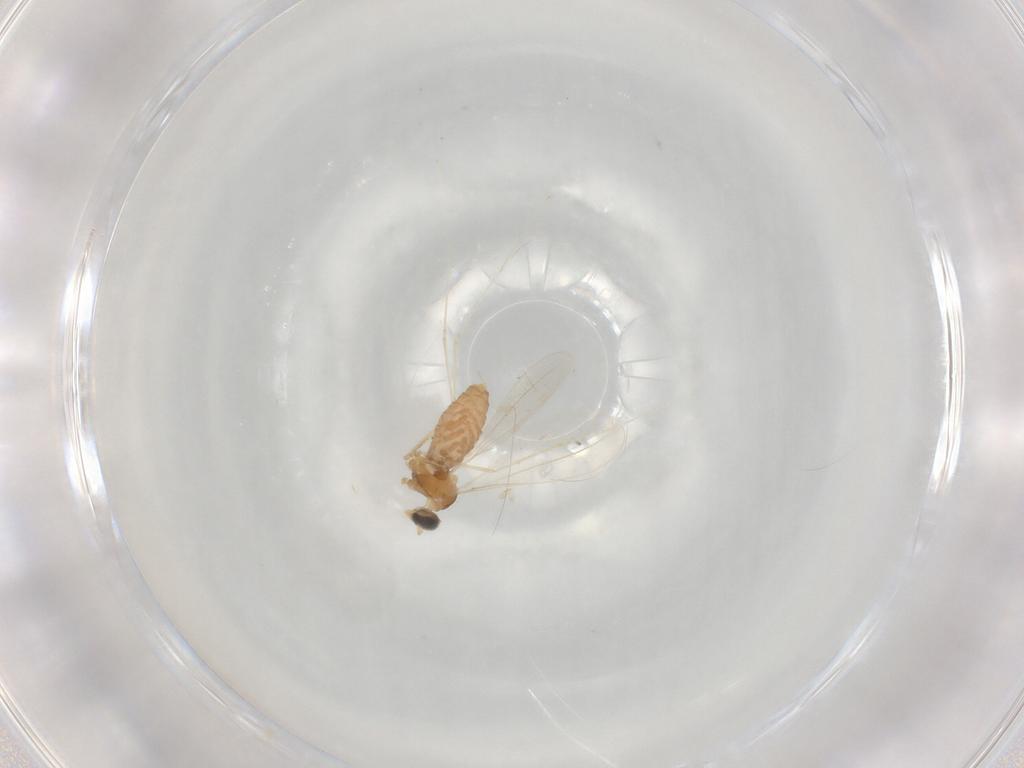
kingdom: Animalia
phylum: Arthropoda
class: Insecta
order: Diptera
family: Cecidomyiidae
